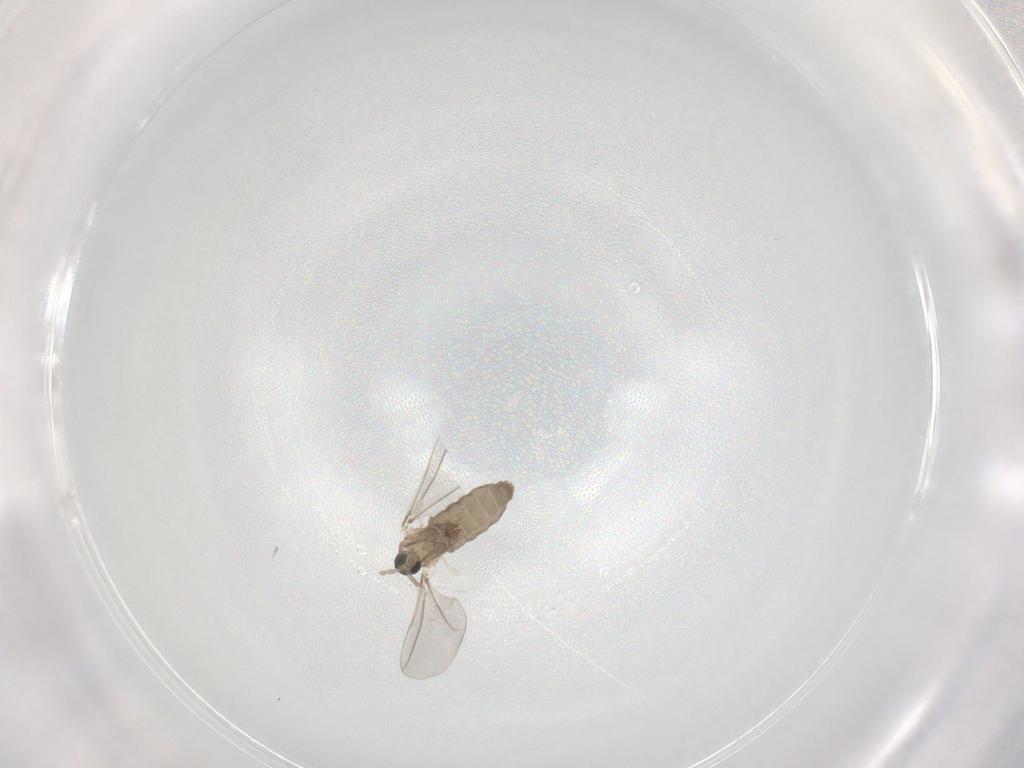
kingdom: Animalia
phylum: Arthropoda
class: Insecta
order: Diptera
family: Cecidomyiidae
